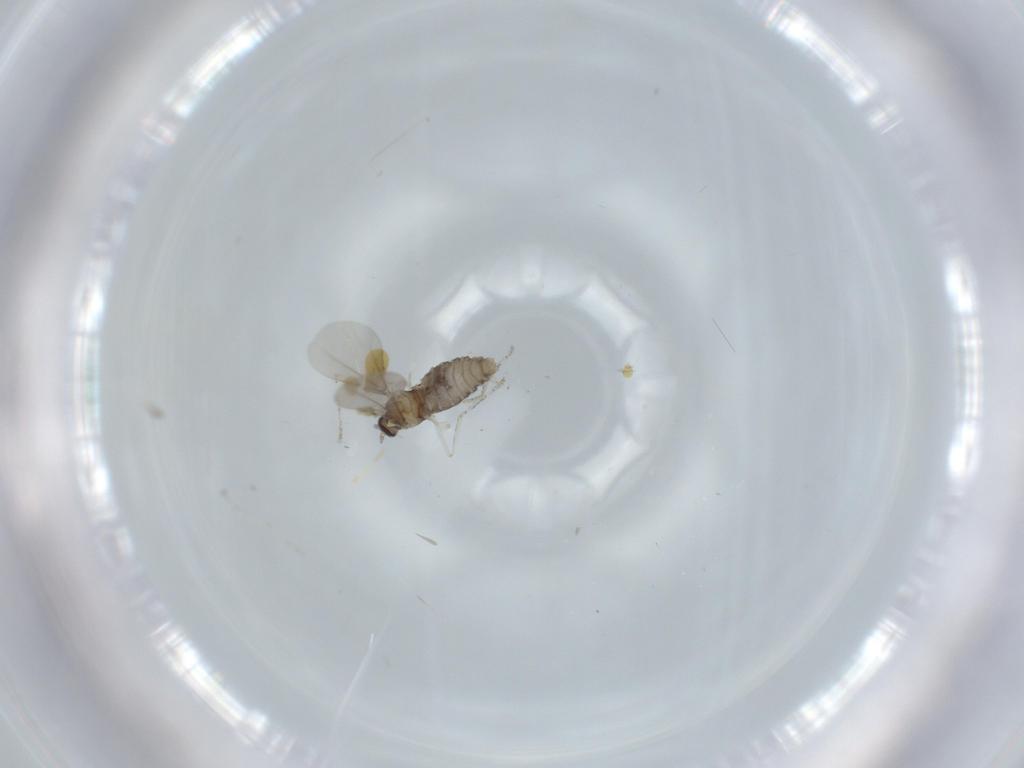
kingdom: Animalia
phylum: Arthropoda
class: Insecta
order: Diptera
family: Cecidomyiidae
